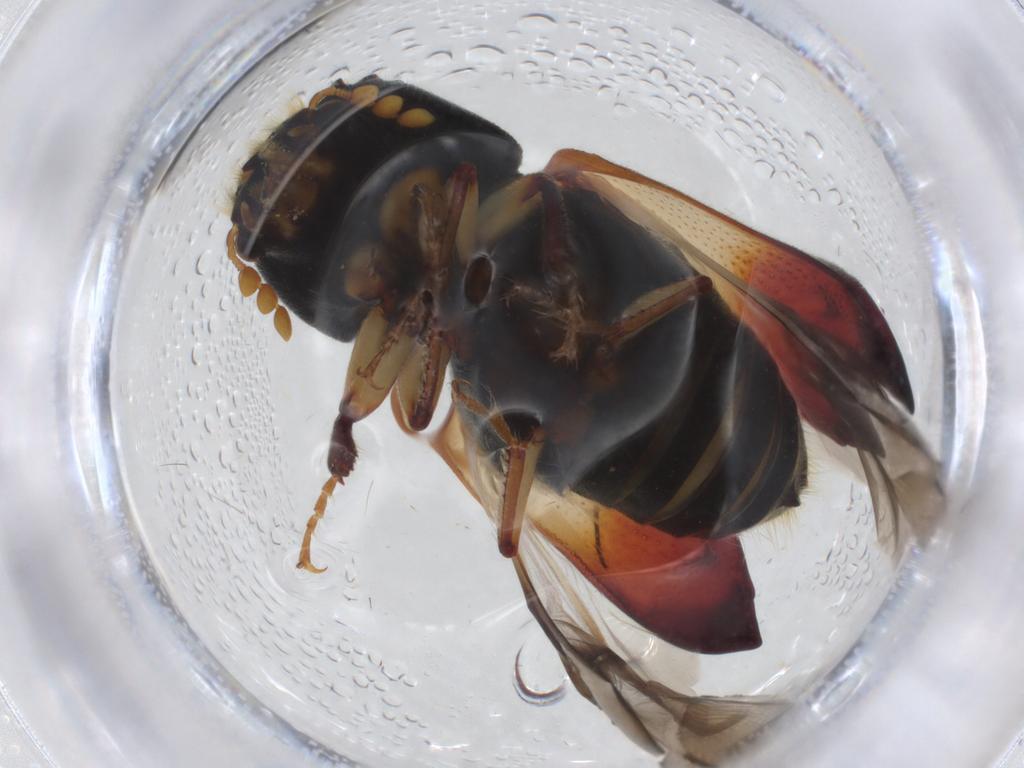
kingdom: Animalia
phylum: Arthropoda
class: Insecta
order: Coleoptera
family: Bostrichidae
